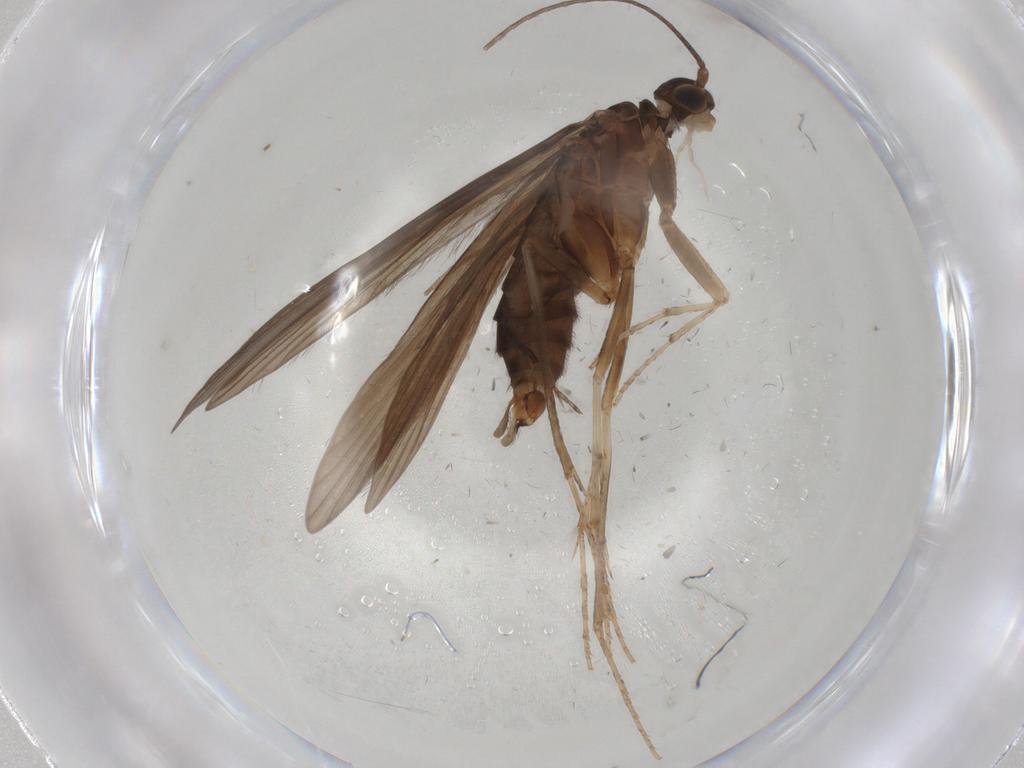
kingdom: Animalia
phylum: Arthropoda
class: Insecta
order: Trichoptera
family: Xiphocentronidae
